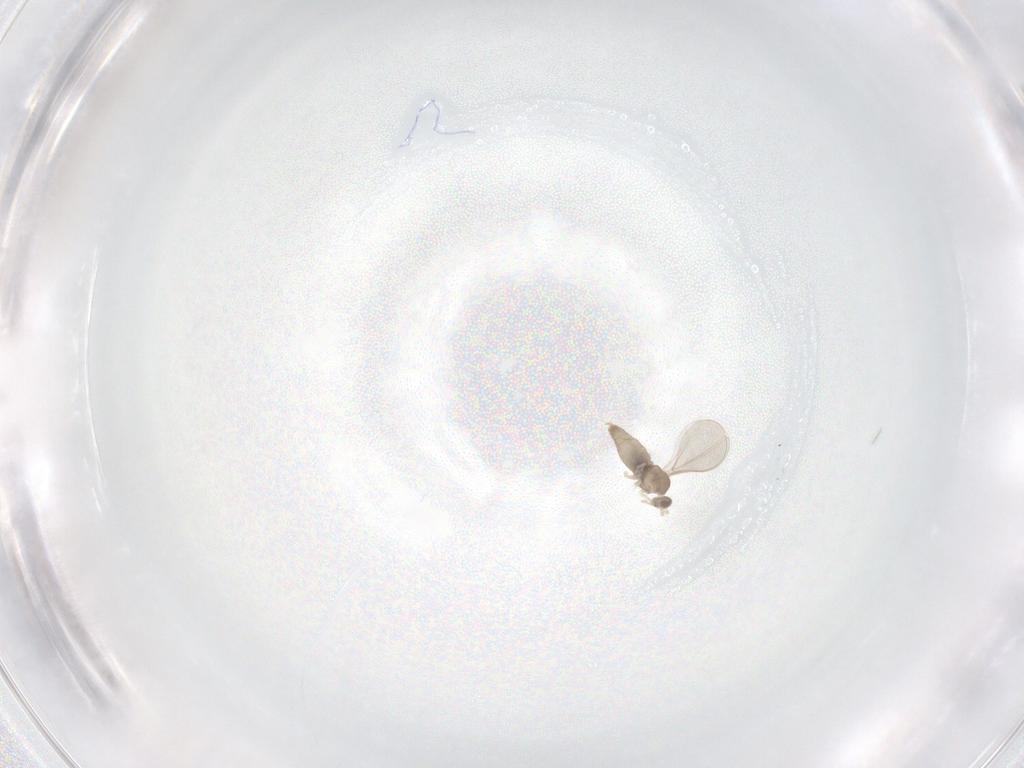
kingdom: Animalia
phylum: Arthropoda
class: Insecta
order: Diptera
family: Cecidomyiidae
